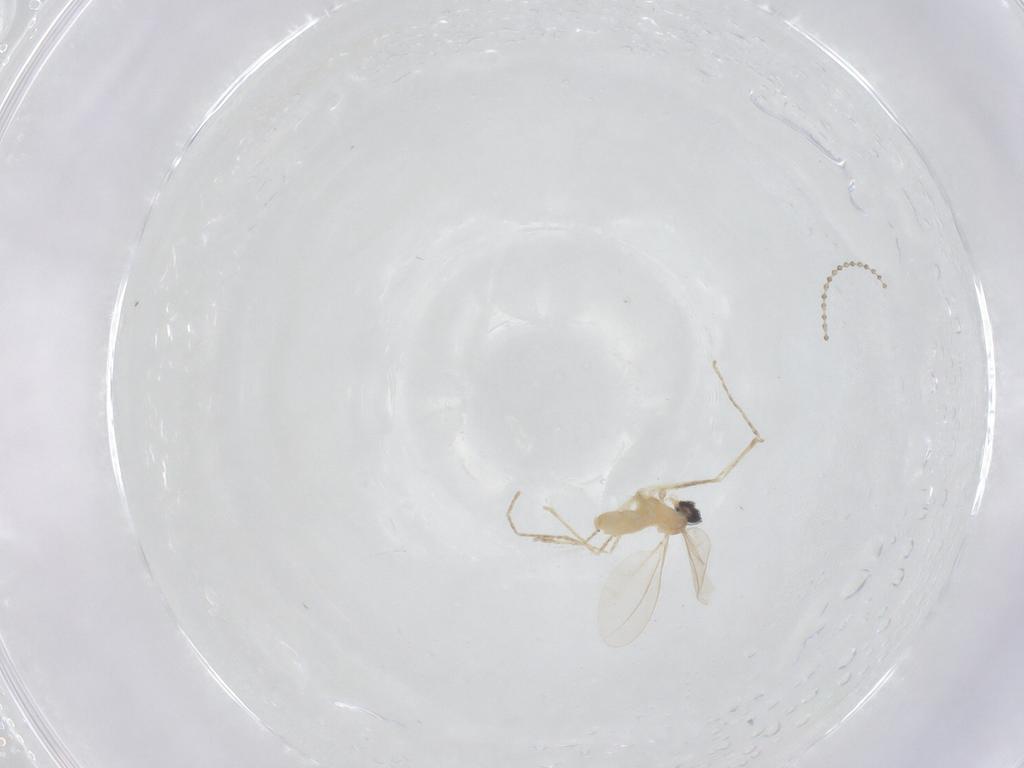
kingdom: Animalia
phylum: Arthropoda
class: Insecta
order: Diptera
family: Cecidomyiidae
